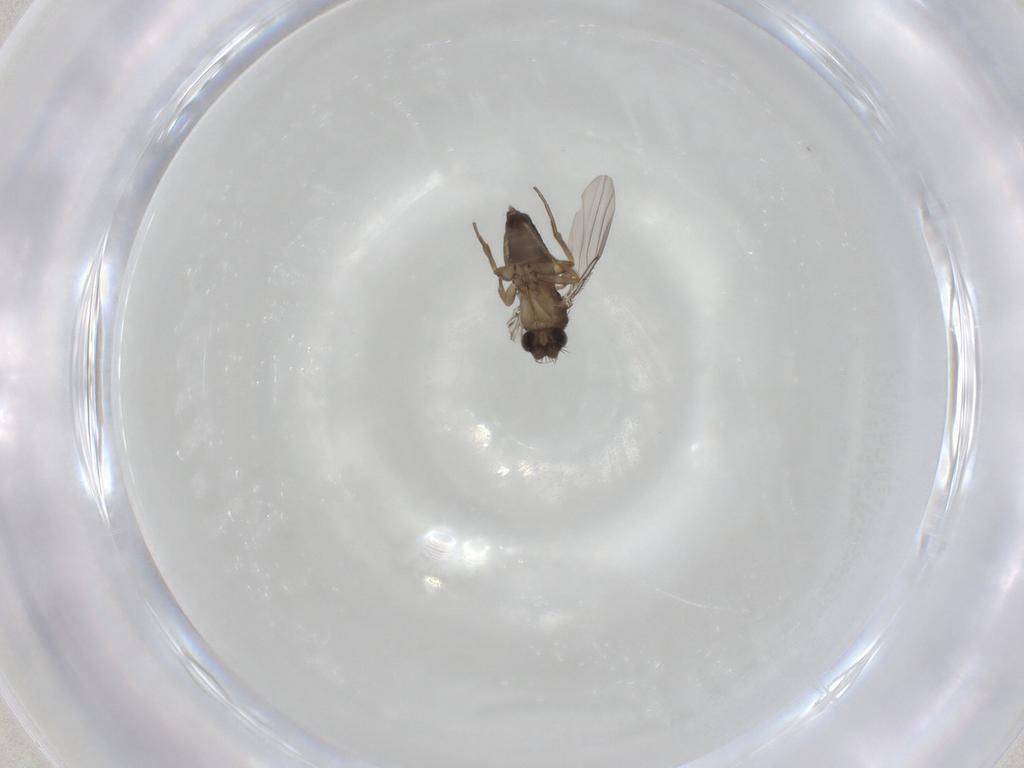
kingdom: Animalia
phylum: Arthropoda
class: Insecta
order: Diptera
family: Phoridae
